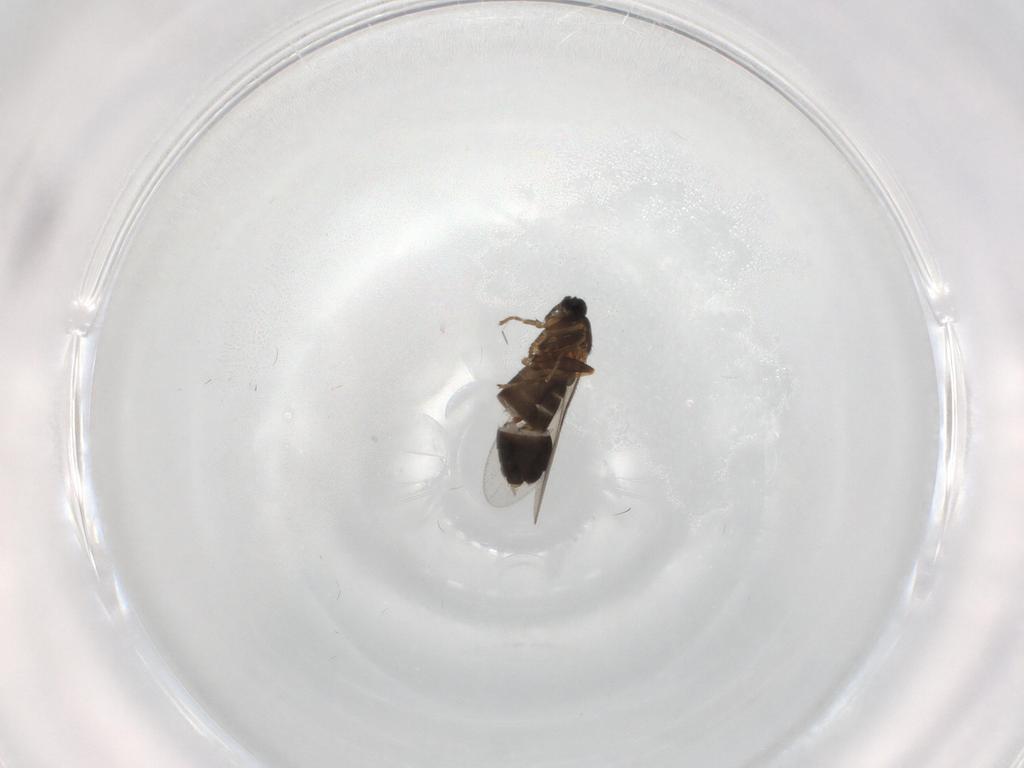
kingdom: Animalia
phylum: Arthropoda
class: Insecta
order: Diptera
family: Scatopsidae
